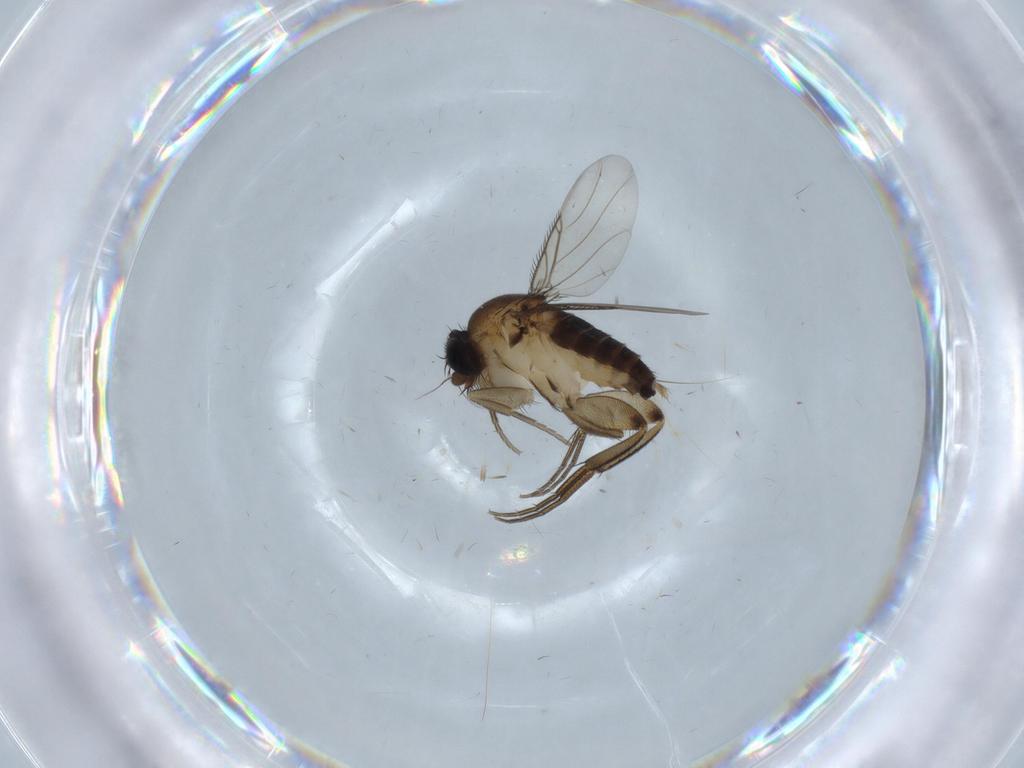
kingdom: Animalia
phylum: Arthropoda
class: Insecta
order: Diptera
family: Phoridae
